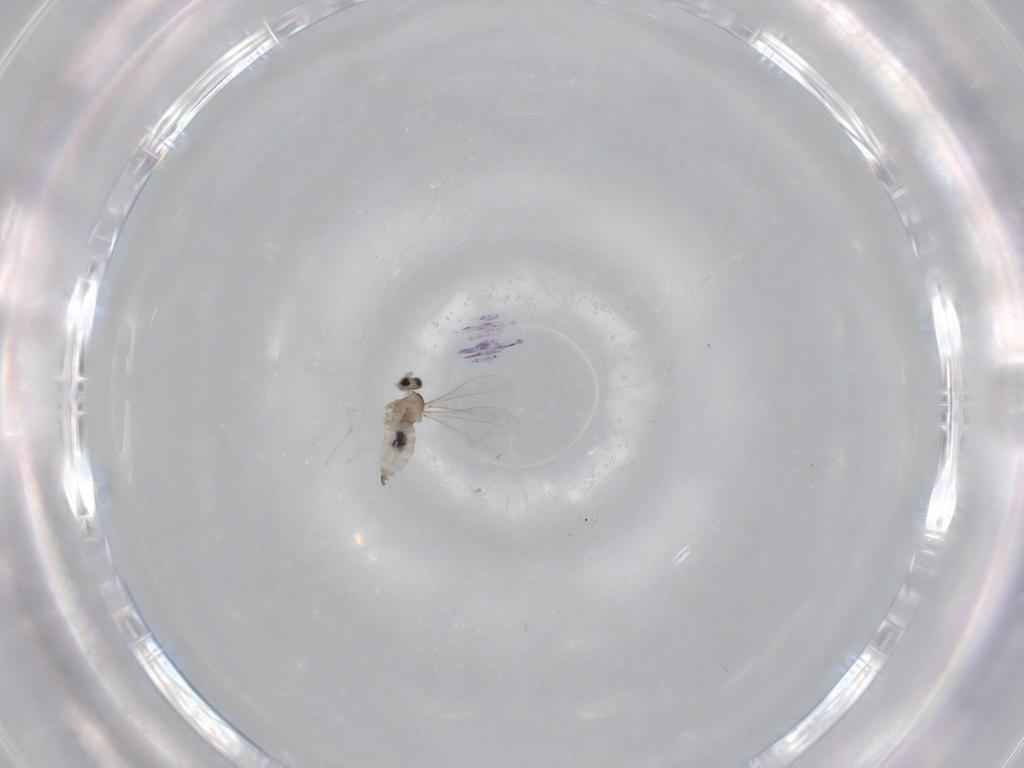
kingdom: Animalia
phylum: Arthropoda
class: Insecta
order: Diptera
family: Cecidomyiidae
